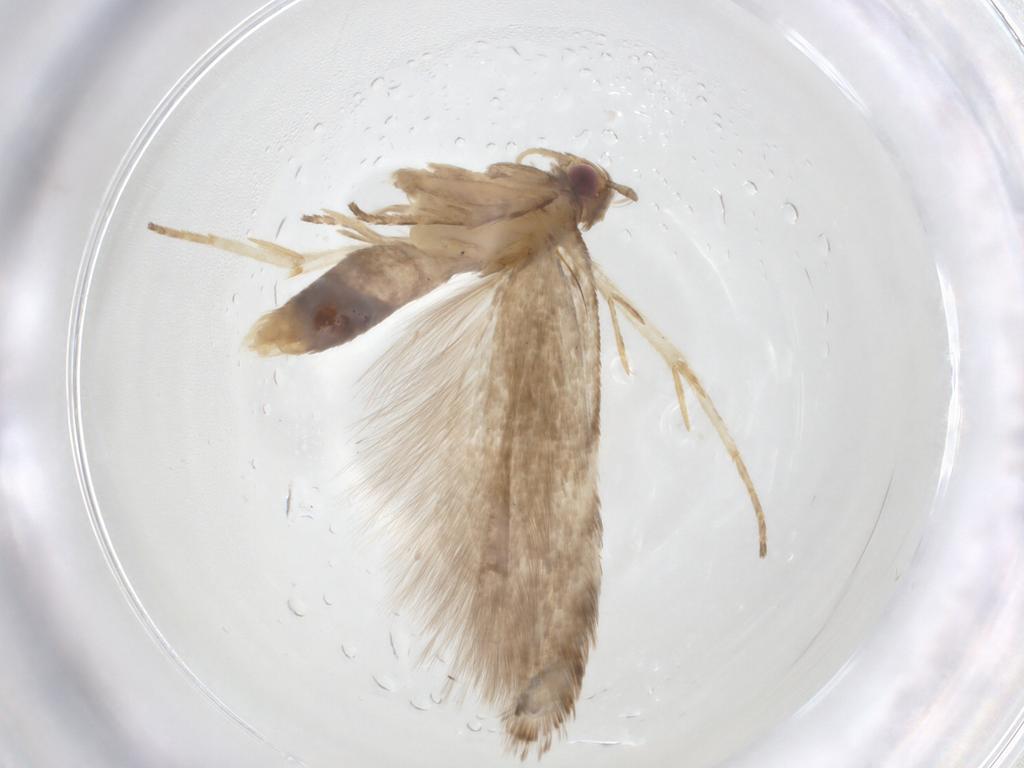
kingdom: Animalia
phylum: Arthropoda
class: Insecta
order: Lepidoptera
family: Gelechiidae
